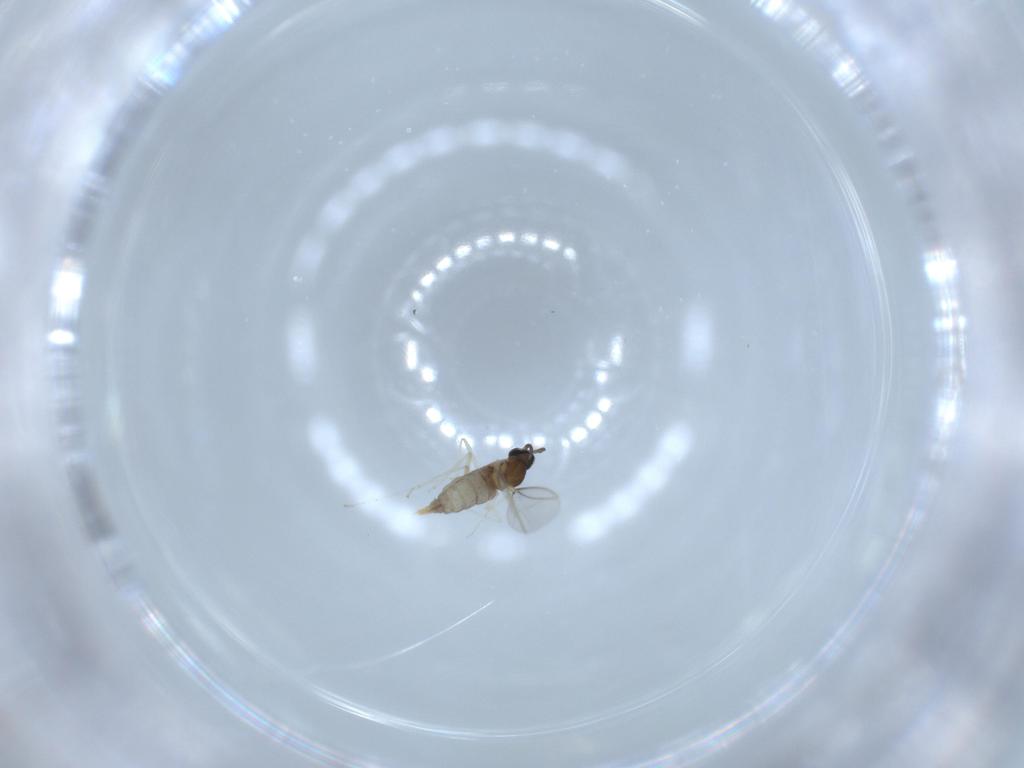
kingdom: Animalia
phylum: Arthropoda
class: Insecta
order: Diptera
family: Cecidomyiidae
